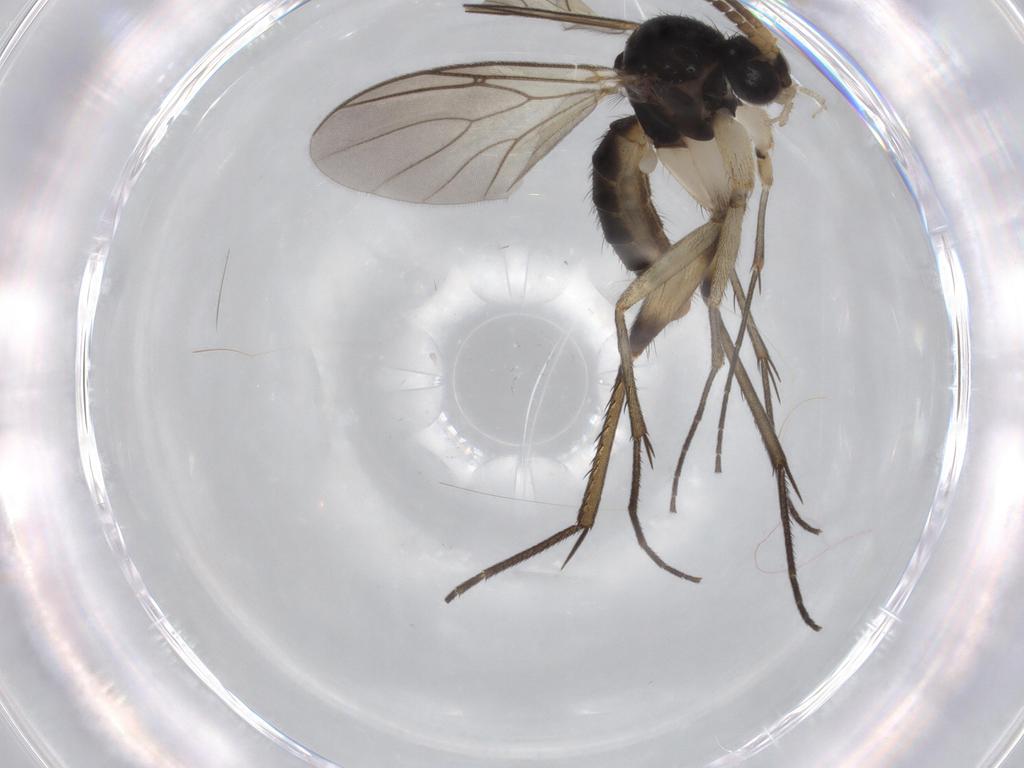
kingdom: Animalia
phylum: Arthropoda
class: Insecta
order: Diptera
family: Phoridae
